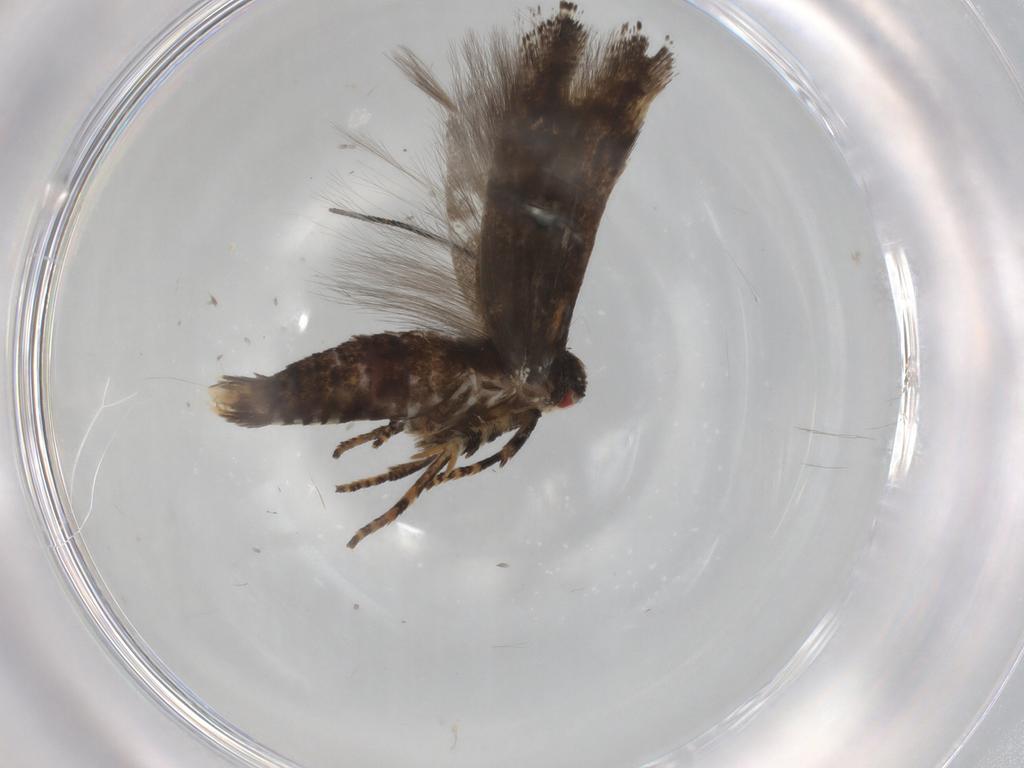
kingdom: Animalia
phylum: Arthropoda
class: Insecta
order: Lepidoptera
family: Momphidae
